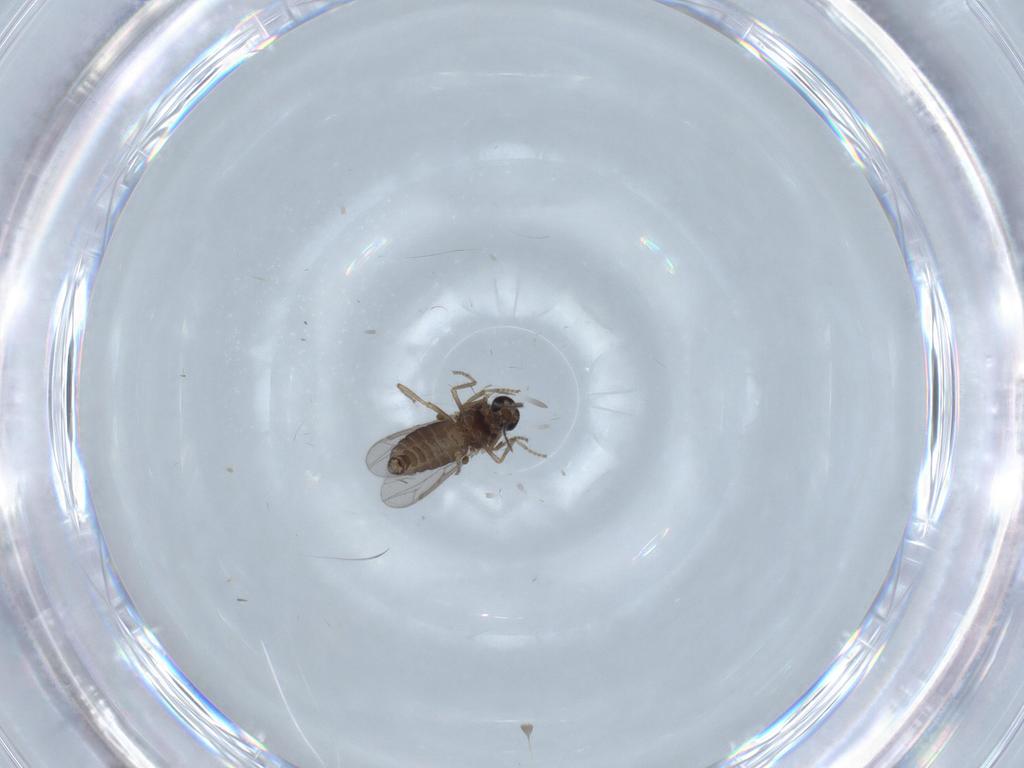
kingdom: Animalia
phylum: Arthropoda
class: Insecta
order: Diptera
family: Ceratopogonidae
